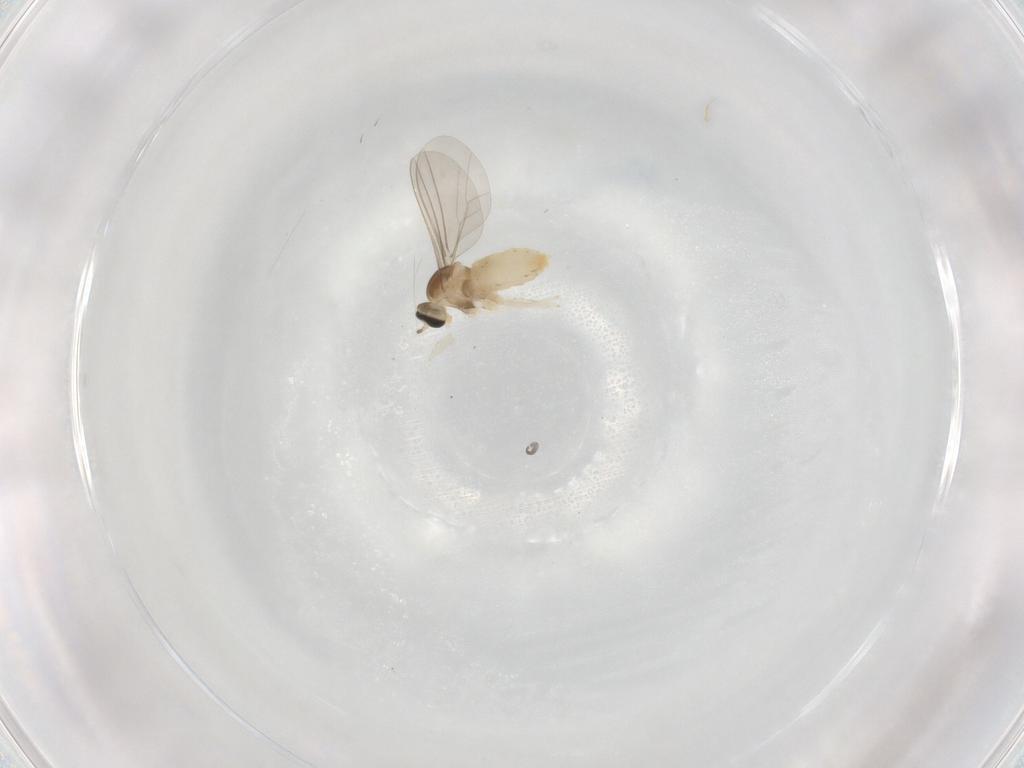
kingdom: Animalia
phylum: Arthropoda
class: Insecta
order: Diptera
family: Cecidomyiidae
